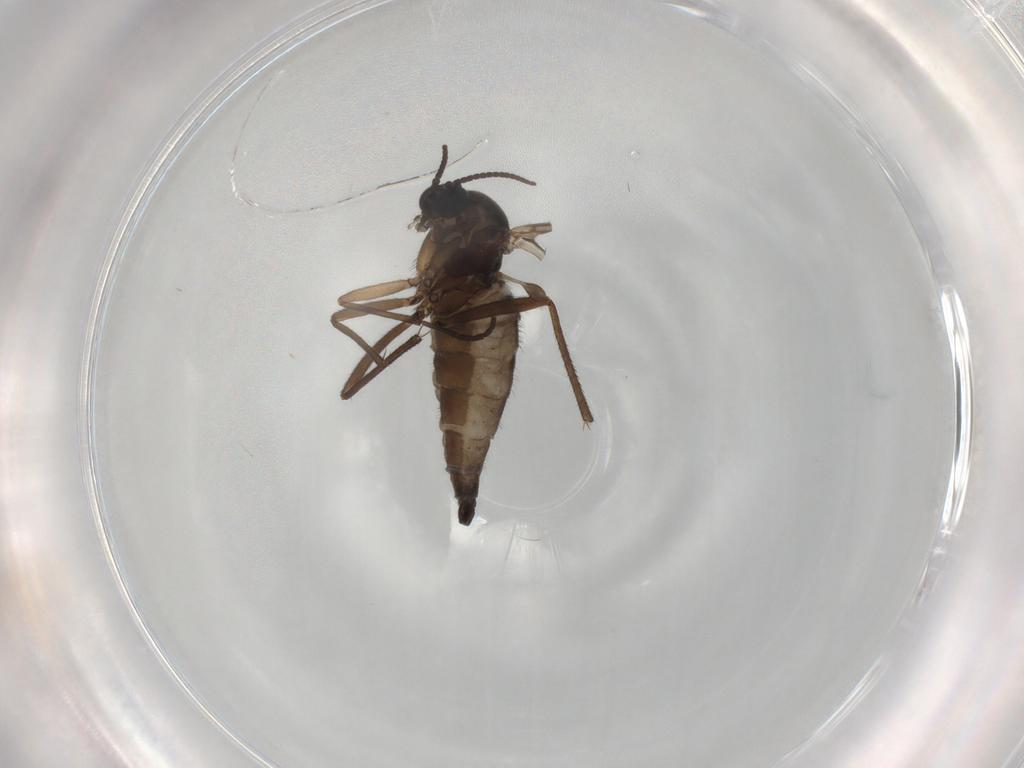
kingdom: Animalia
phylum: Arthropoda
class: Insecta
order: Diptera
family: Sciaridae
